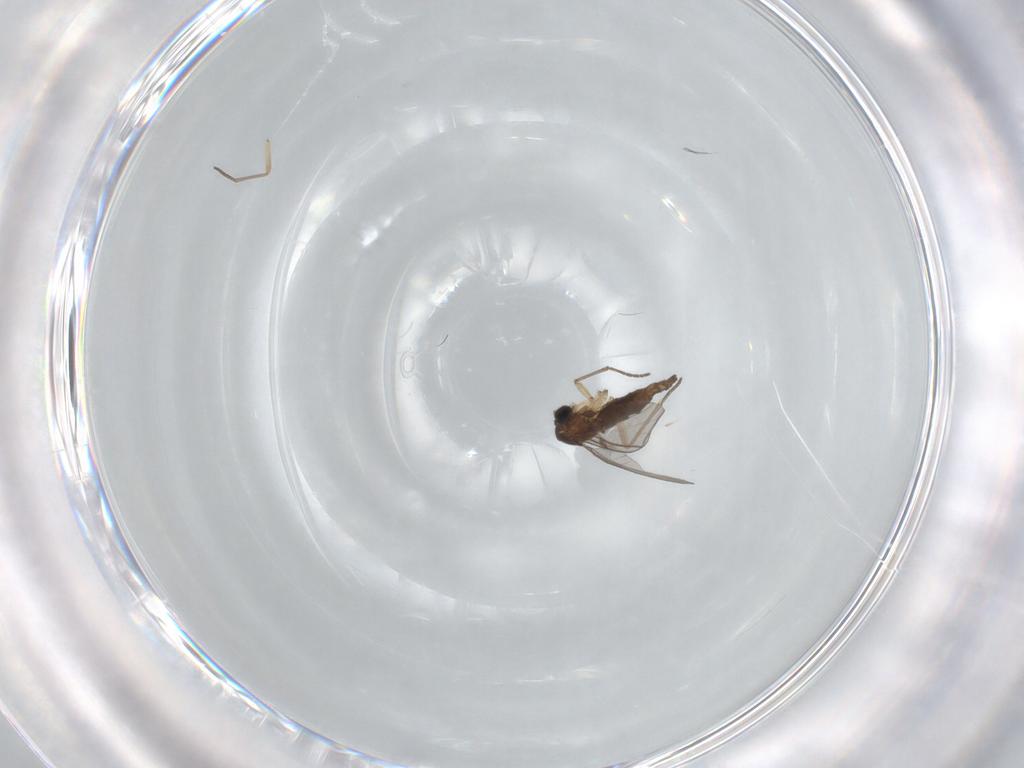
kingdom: Animalia
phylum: Arthropoda
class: Insecta
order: Diptera
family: Sciaridae
